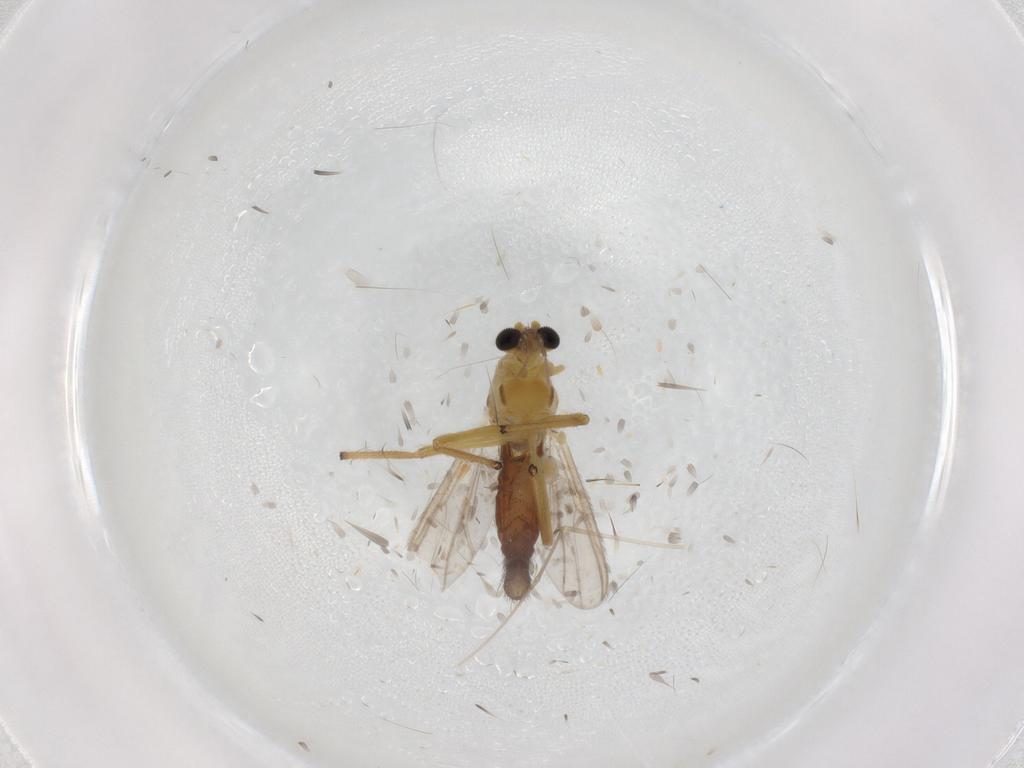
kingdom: Animalia
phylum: Arthropoda
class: Insecta
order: Diptera
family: Chironomidae
